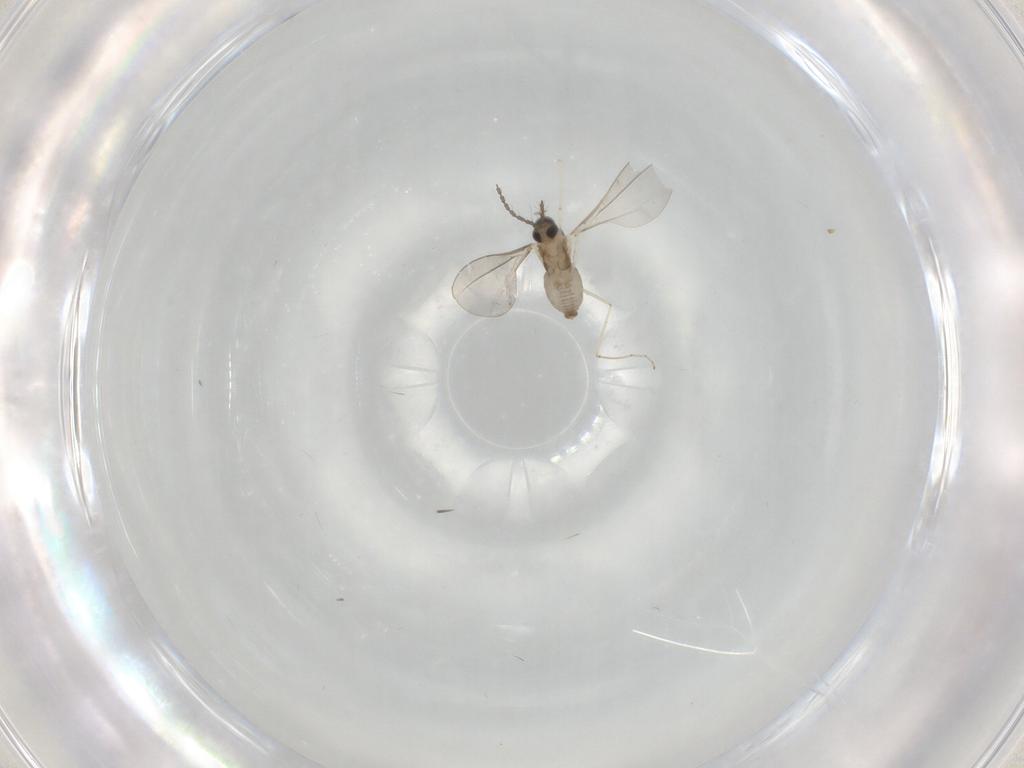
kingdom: Animalia
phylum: Arthropoda
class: Insecta
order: Diptera
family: Cecidomyiidae
